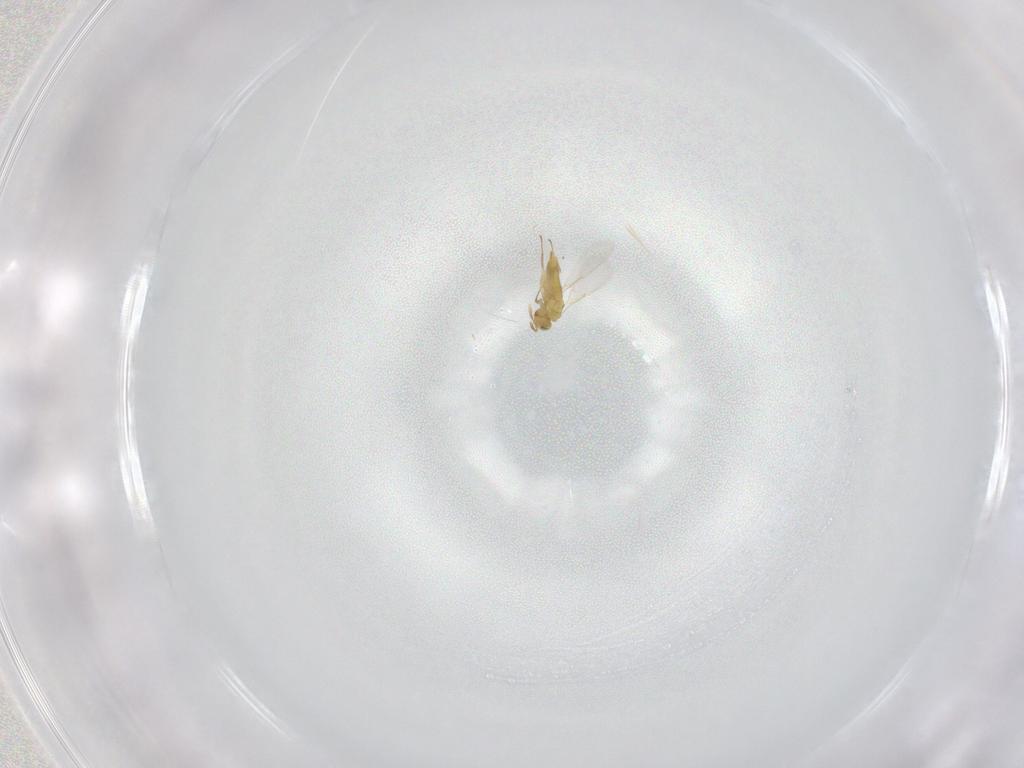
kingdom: Animalia
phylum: Arthropoda
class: Insecta
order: Hymenoptera
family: Aphelinidae
